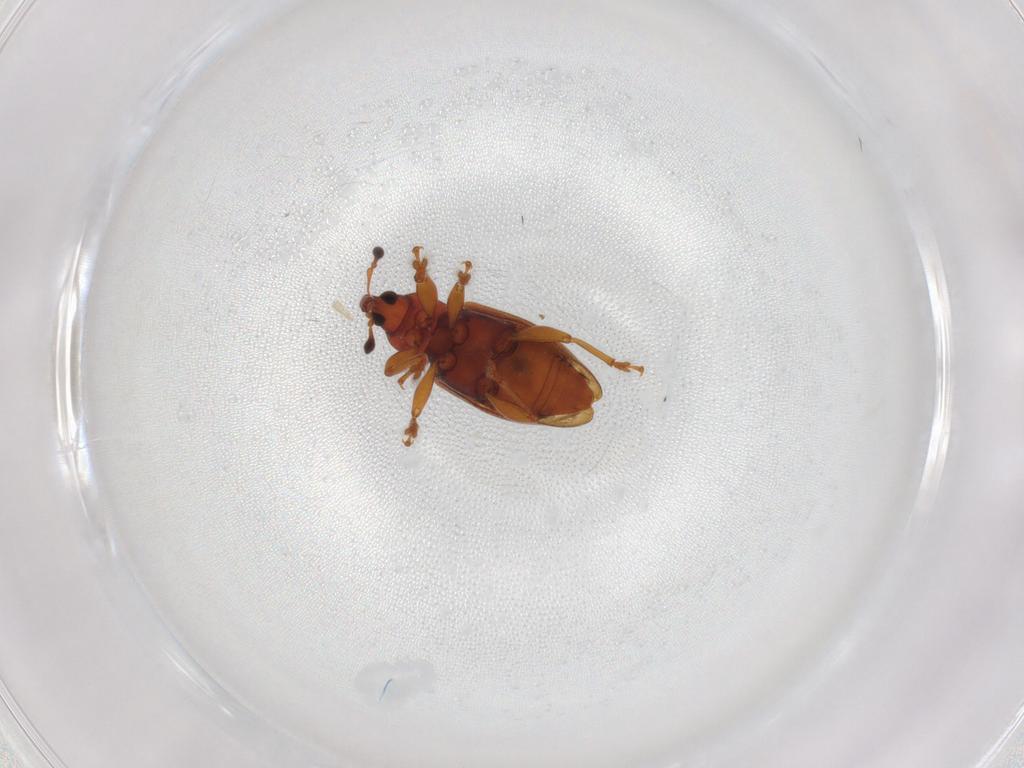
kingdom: Animalia
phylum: Arthropoda
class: Insecta
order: Coleoptera
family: Curculionidae
